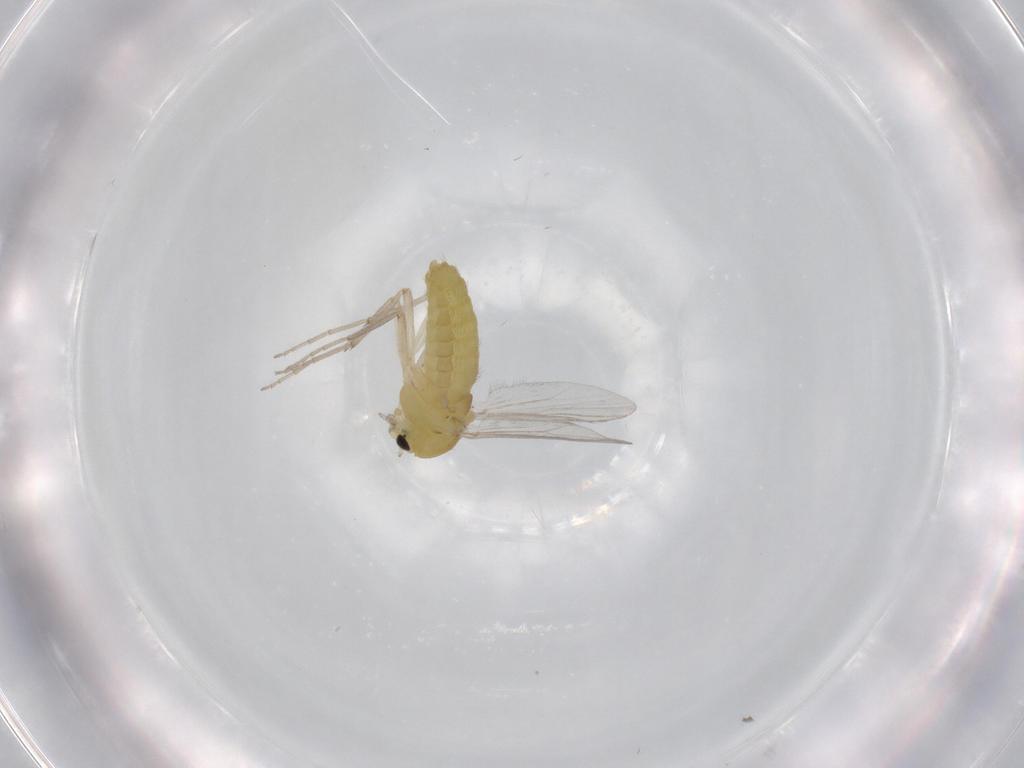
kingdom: Animalia
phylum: Arthropoda
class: Insecta
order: Diptera
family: Chironomidae
